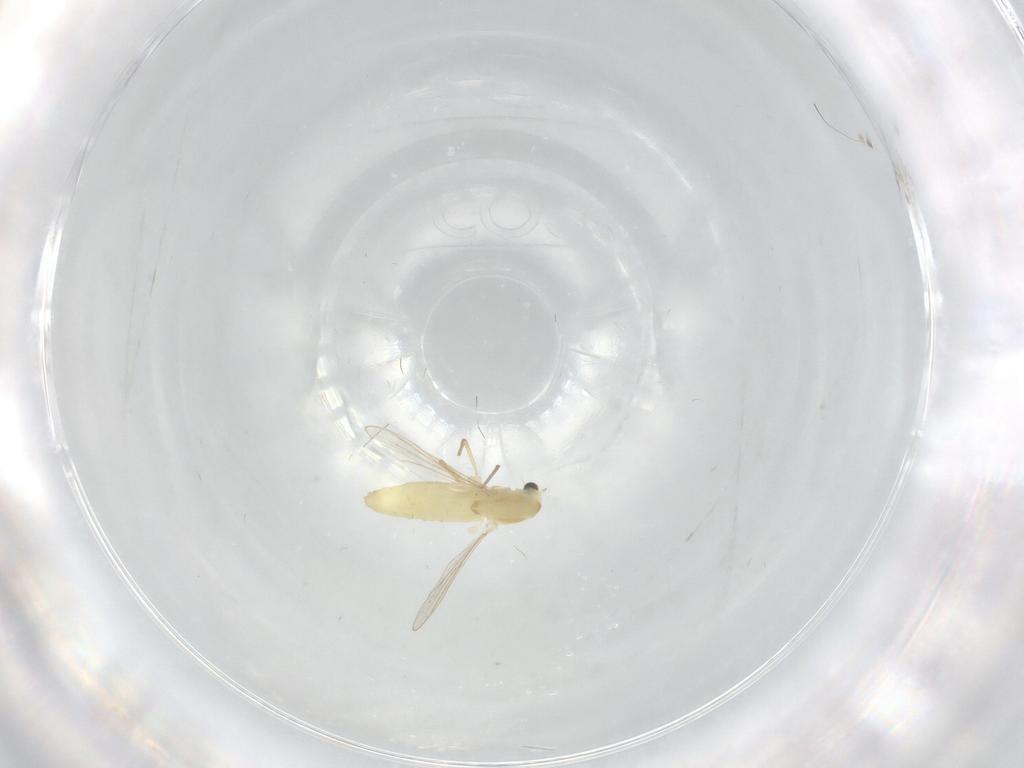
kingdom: Animalia
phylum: Arthropoda
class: Insecta
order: Diptera
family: Chironomidae
